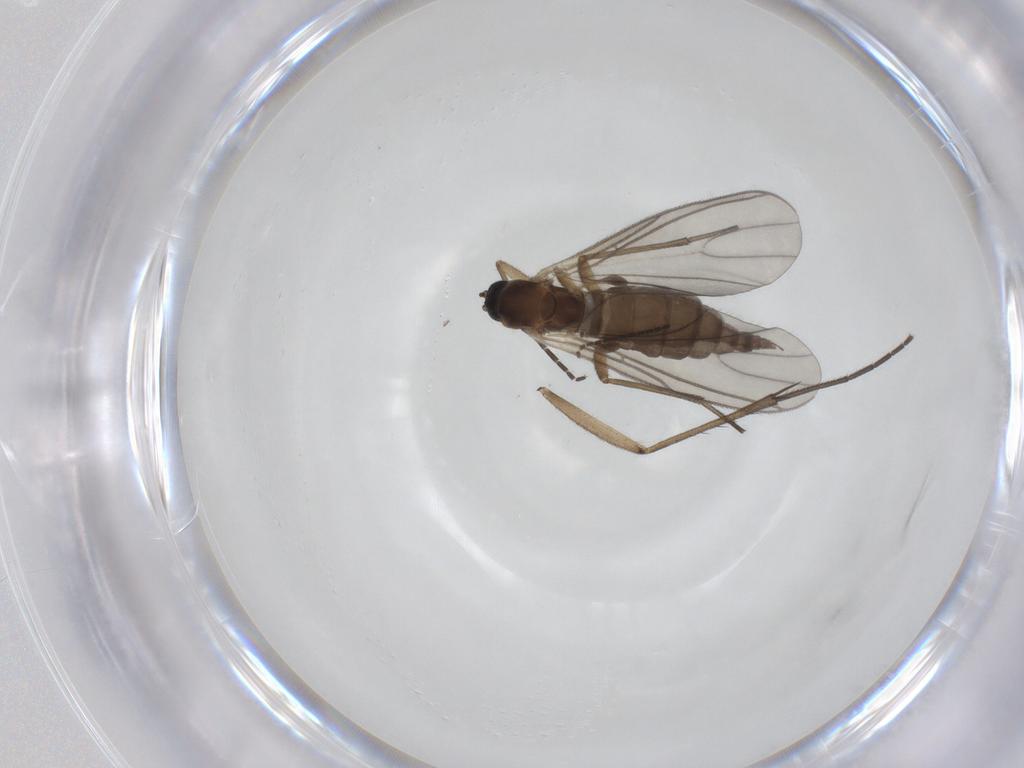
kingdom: Animalia
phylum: Arthropoda
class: Insecta
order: Diptera
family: Sciaridae
